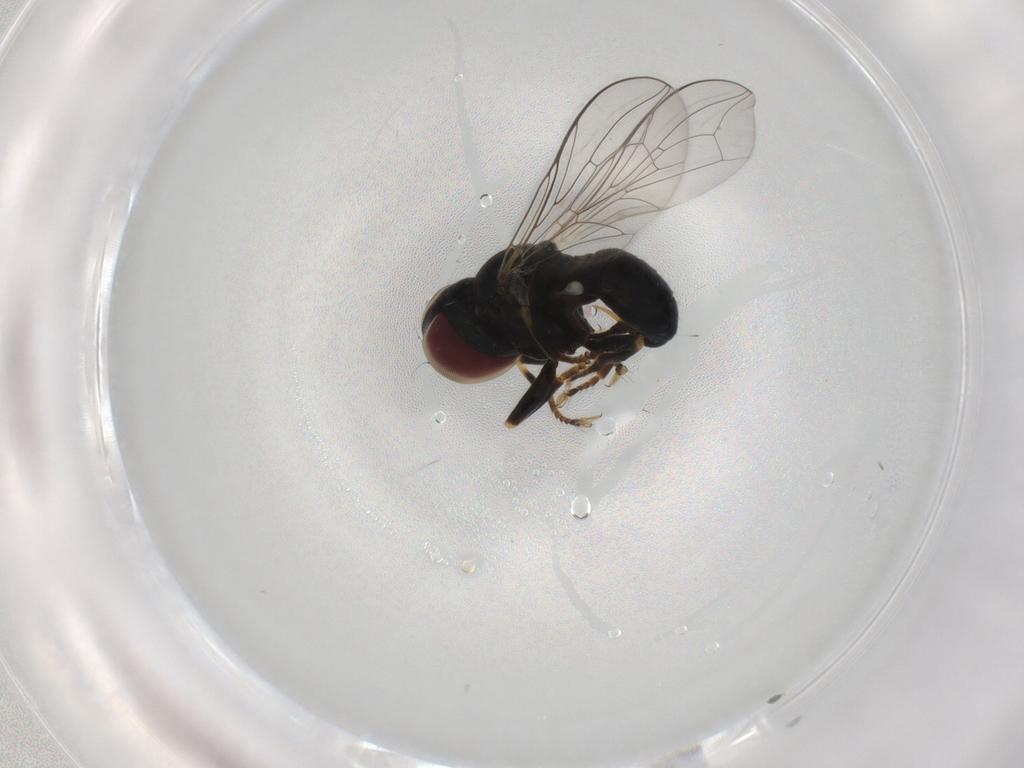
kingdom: Animalia
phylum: Arthropoda
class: Insecta
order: Diptera
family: Pipunculidae
